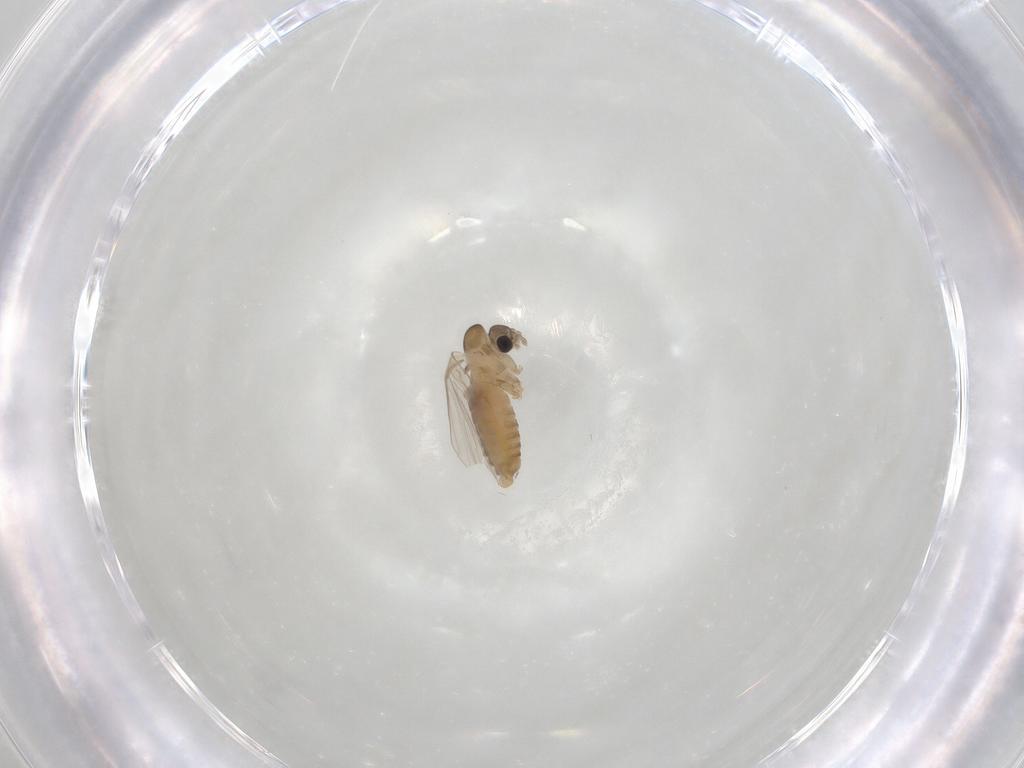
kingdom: Animalia
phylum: Arthropoda
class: Insecta
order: Diptera
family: Psychodidae
